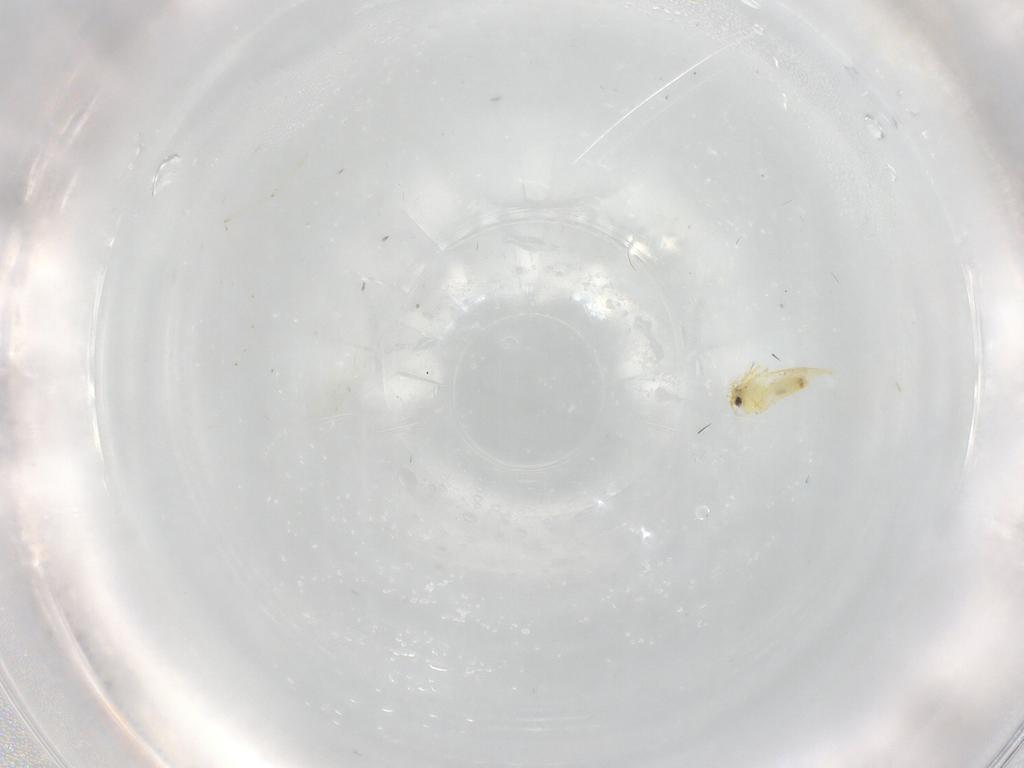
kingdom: Animalia
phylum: Arthropoda
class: Insecta
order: Hemiptera
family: Aleyrodidae
